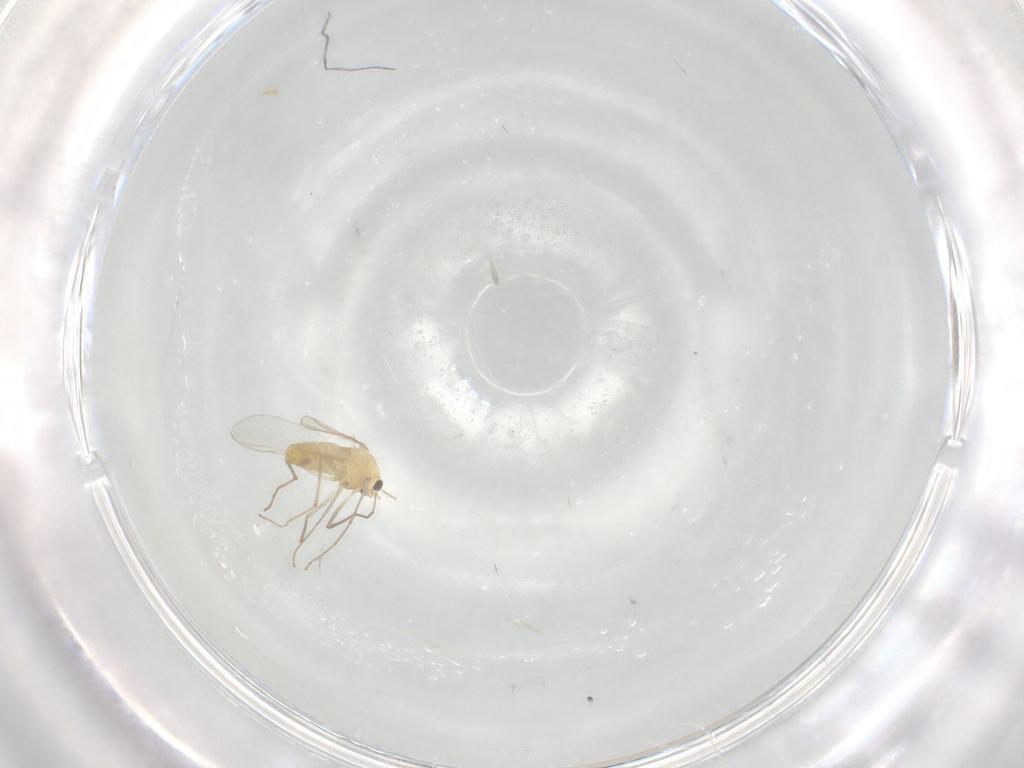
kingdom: Animalia
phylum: Arthropoda
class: Insecta
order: Diptera
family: Chironomidae
